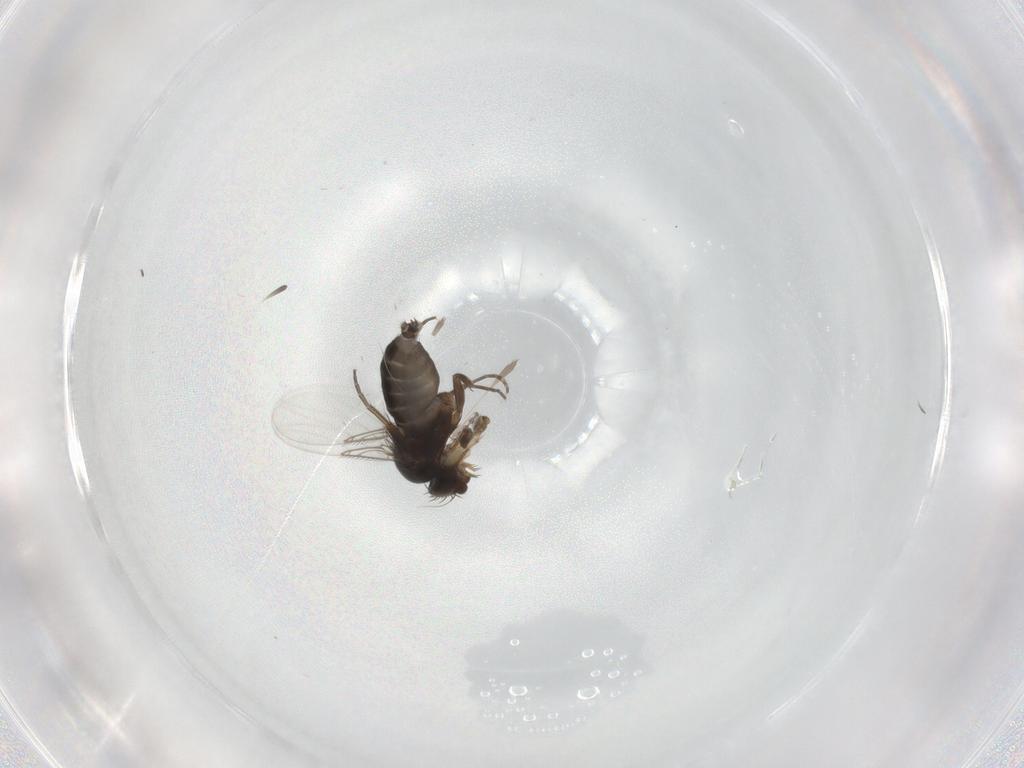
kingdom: Animalia
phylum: Arthropoda
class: Insecta
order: Diptera
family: Phoridae
